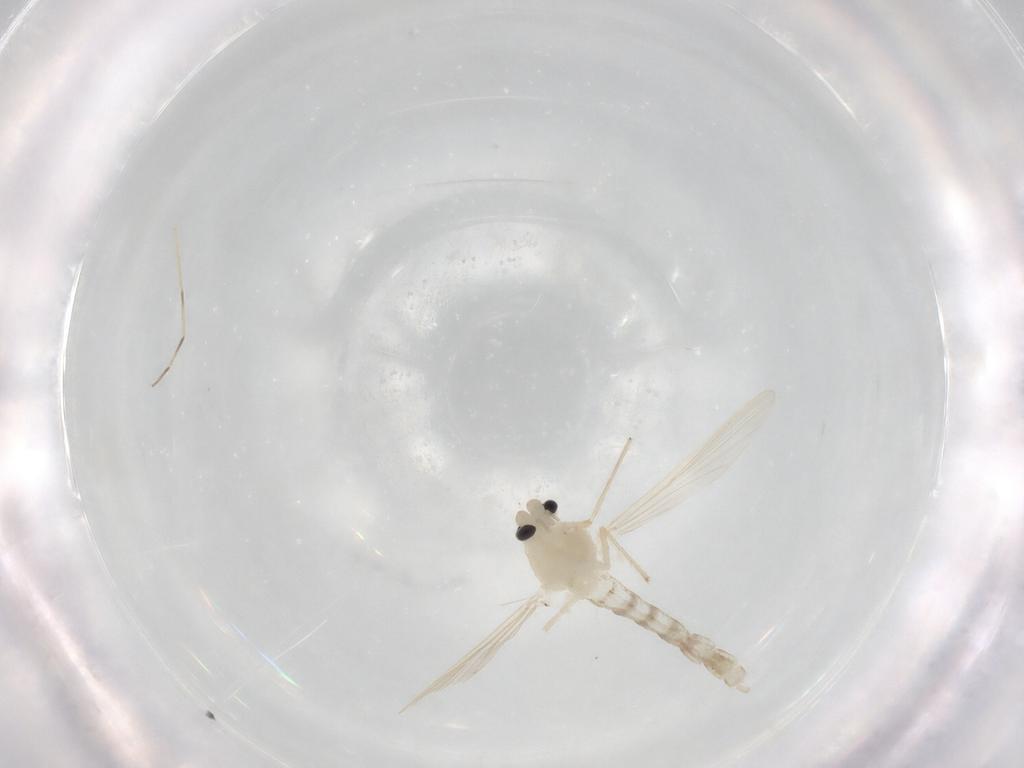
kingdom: Animalia
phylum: Arthropoda
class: Insecta
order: Diptera
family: Chironomidae
